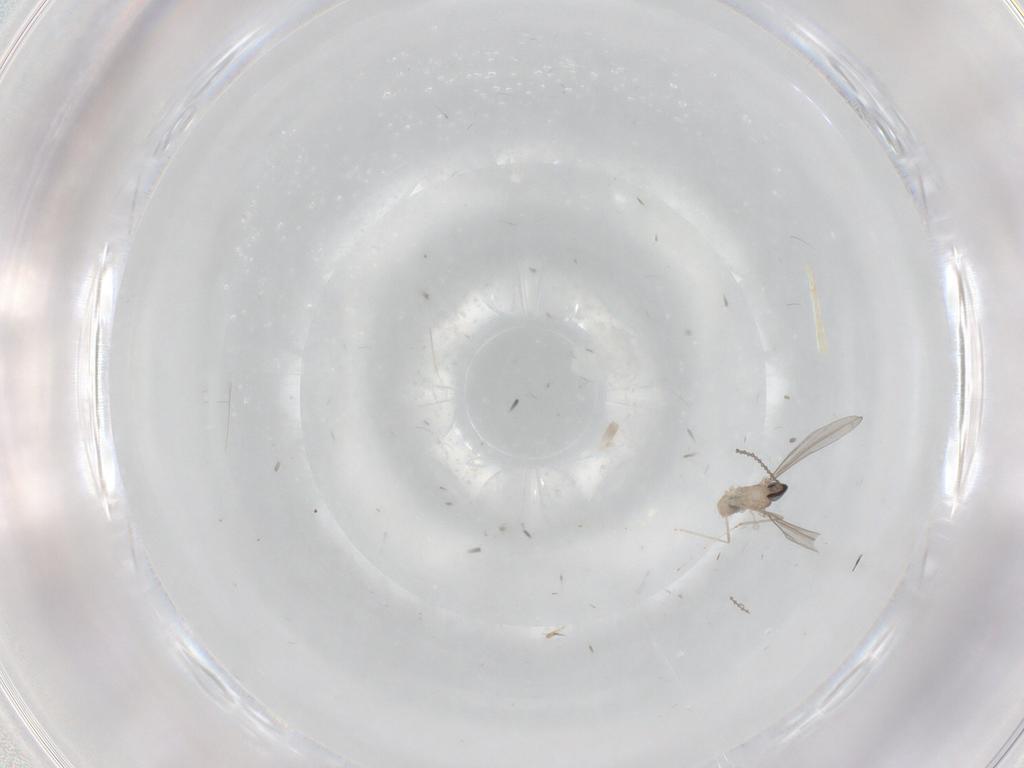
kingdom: Animalia
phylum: Arthropoda
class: Insecta
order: Diptera
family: Cecidomyiidae
